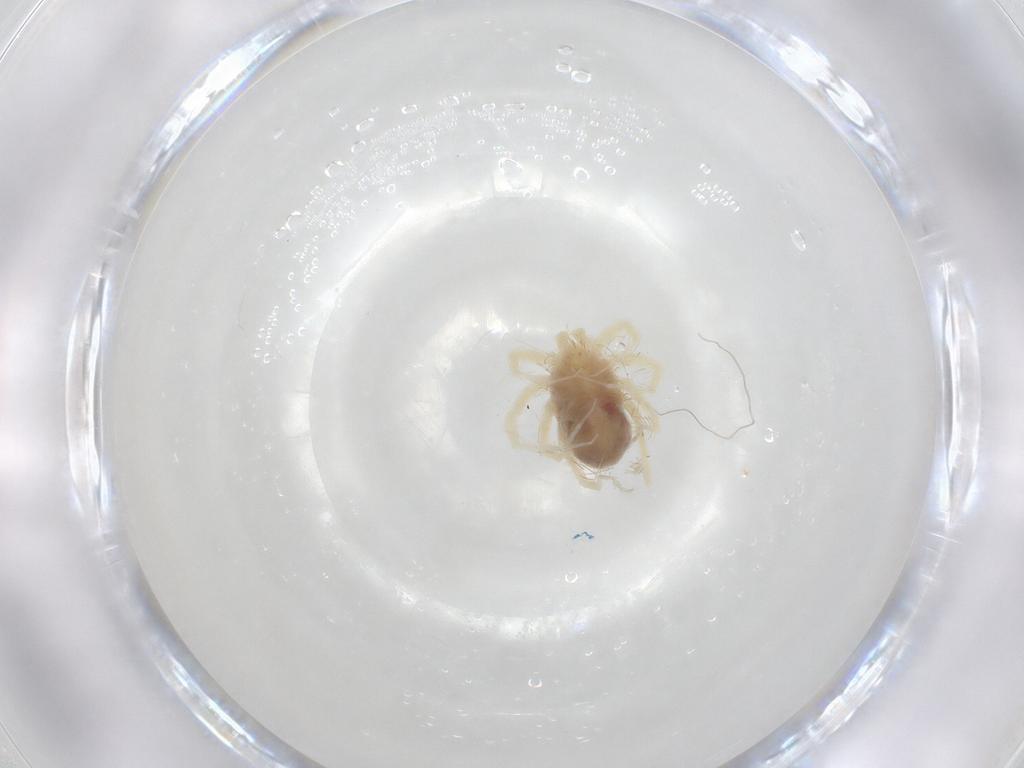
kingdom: Animalia
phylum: Arthropoda
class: Arachnida
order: Trombidiformes
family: Anystidae
